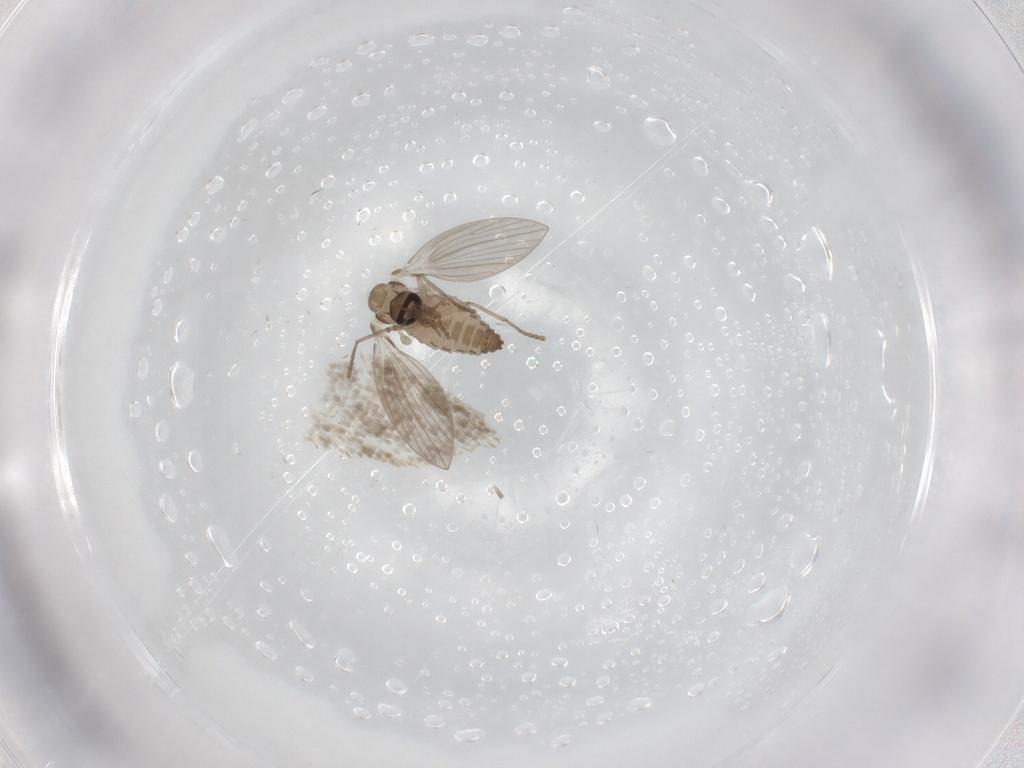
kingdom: Animalia
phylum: Arthropoda
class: Insecta
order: Diptera
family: Psychodidae
